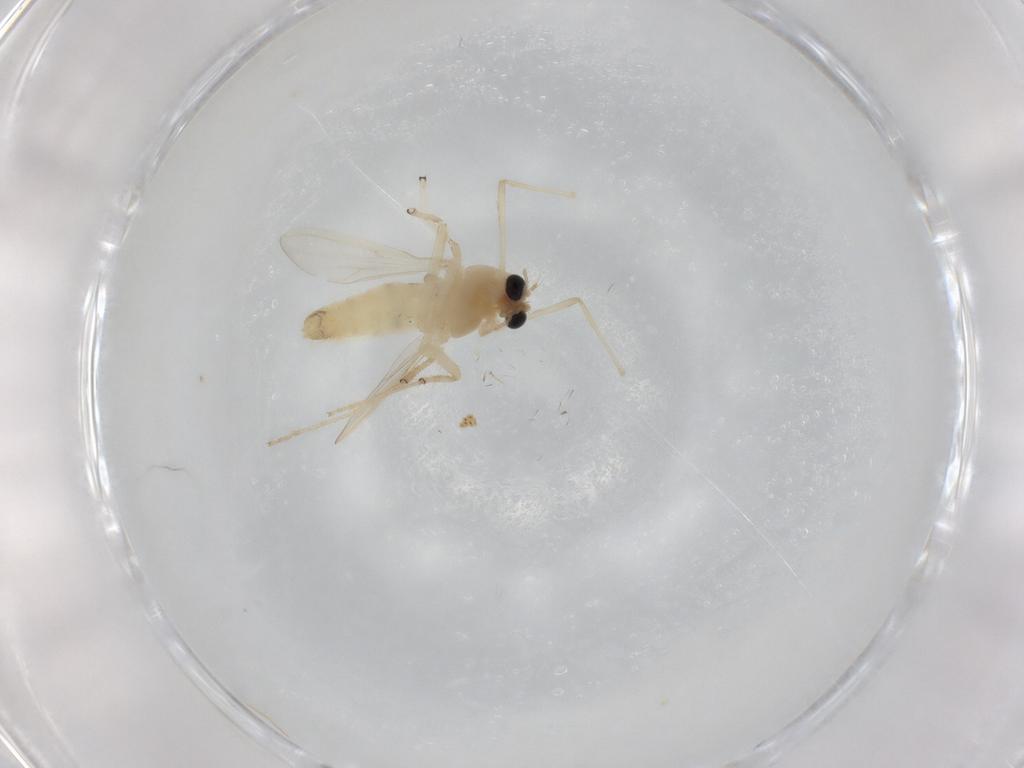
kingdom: Animalia
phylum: Arthropoda
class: Insecta
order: Diptera
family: Chironomidae
